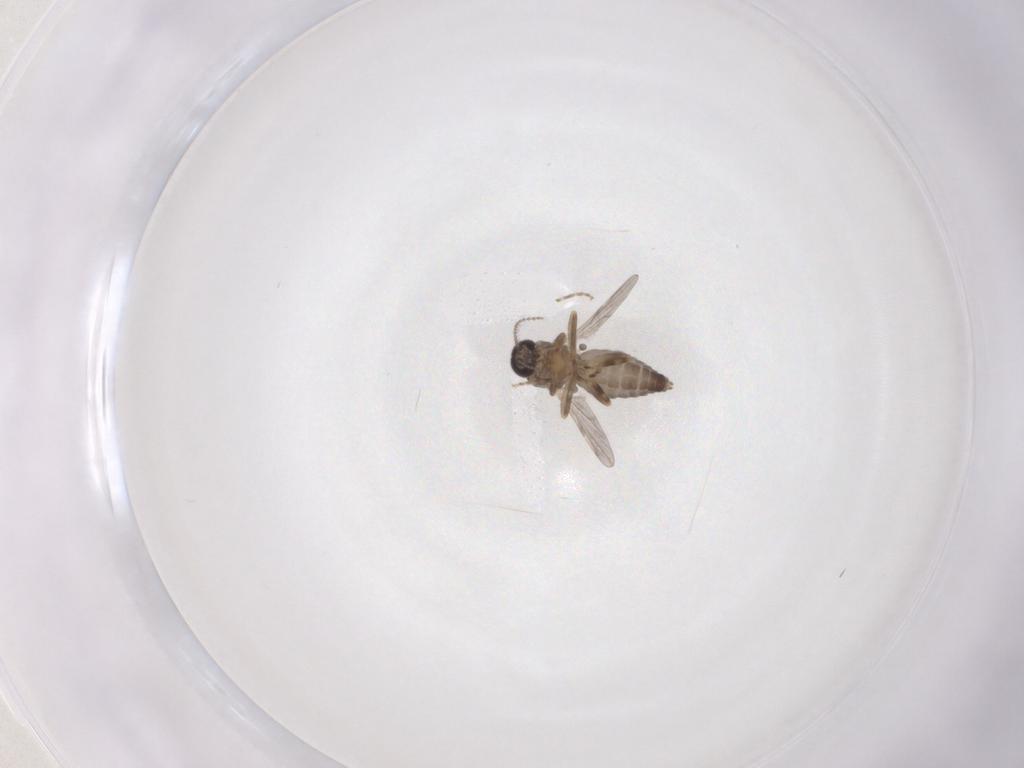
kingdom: Animalia
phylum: Arthropoda
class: Insecta
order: Diptera
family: Ceratopogonidae
